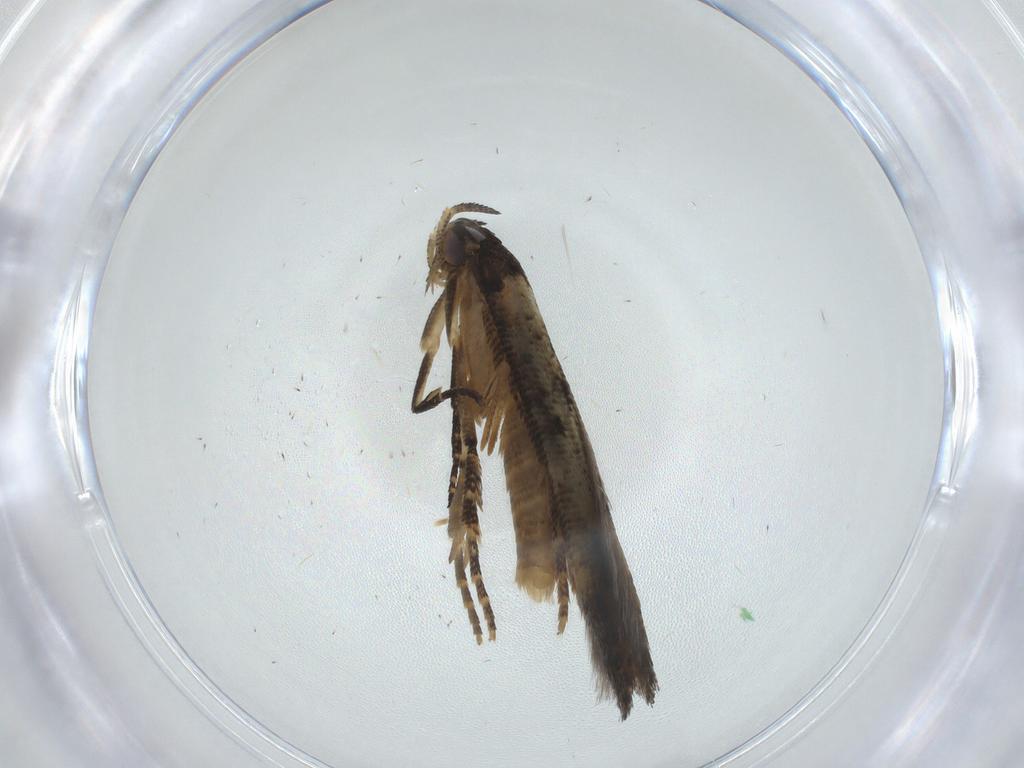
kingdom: Animalia
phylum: Arthropoda
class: Insecta
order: Lepidoptera
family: Gelechiidae
